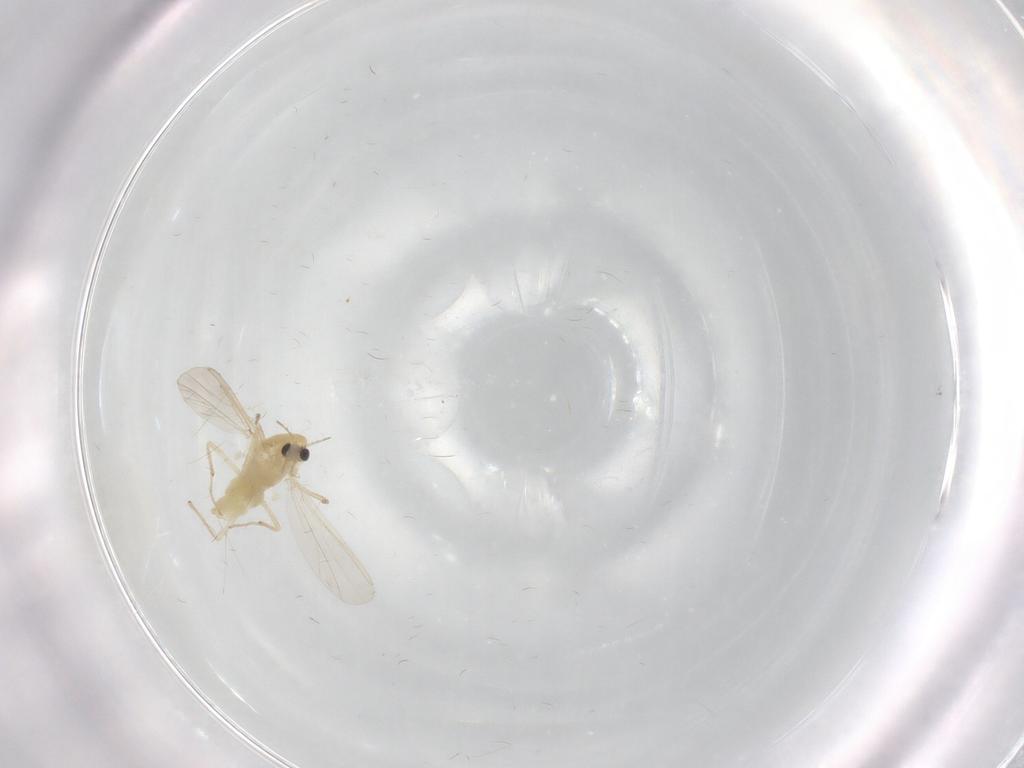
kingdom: Animalia
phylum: Arthropoda
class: Insecta
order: Diptera
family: Chironomidae
